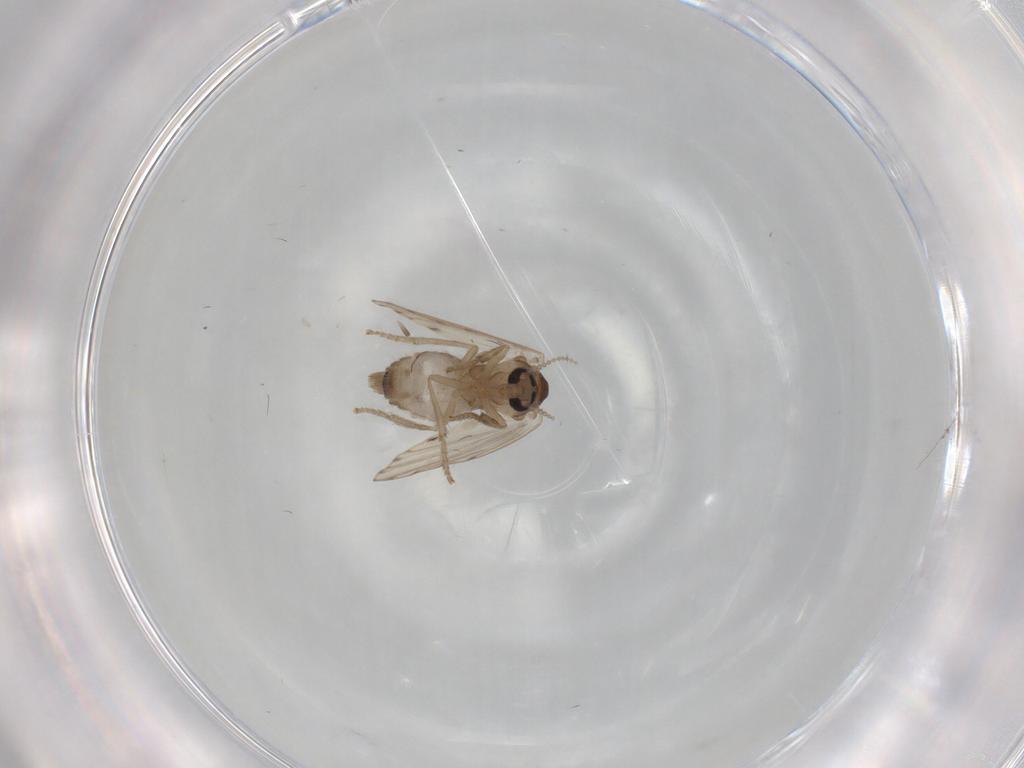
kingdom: Animalia
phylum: Arthropoda
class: Insecta
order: Diptera
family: Psychodidae
